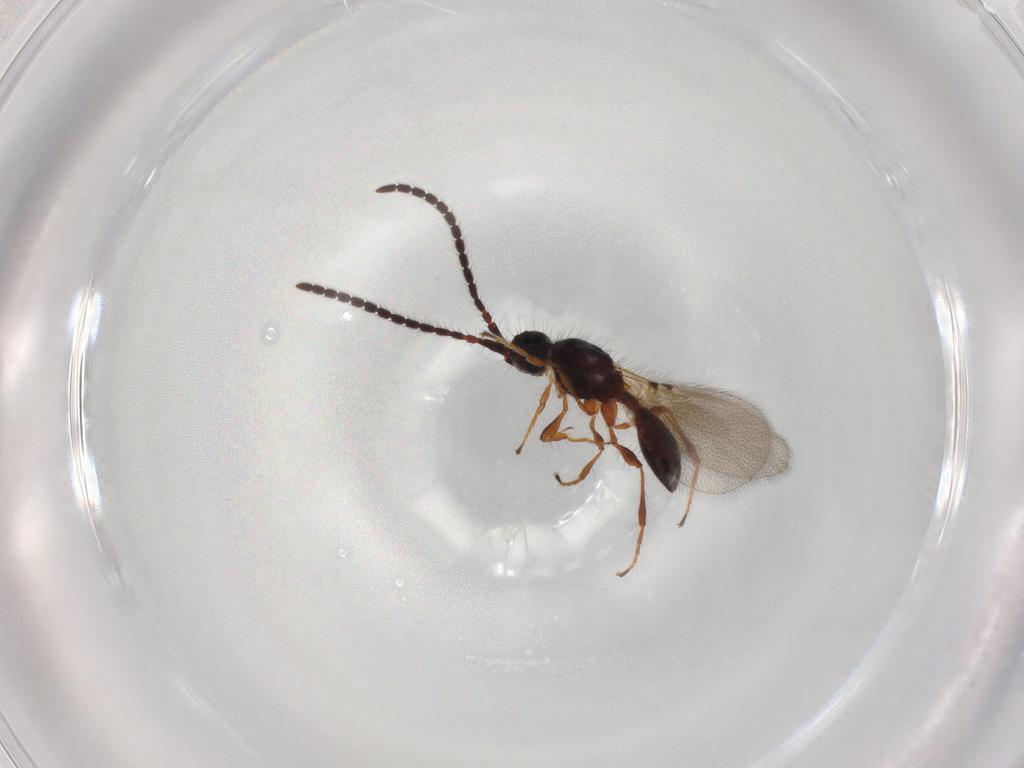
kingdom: Animalia
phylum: Arthropoda
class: Insecta
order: Hymenoptera
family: Diapriidae
